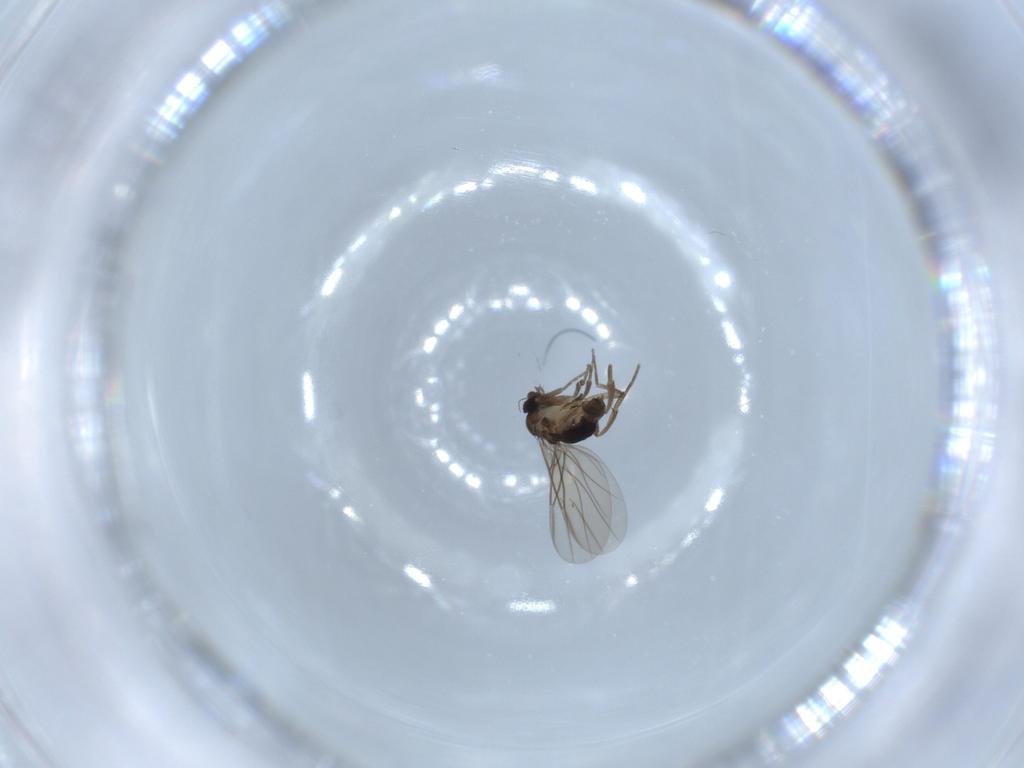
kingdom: Animalia
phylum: Arthropoda
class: Insecta
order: Diptera
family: Phoridae
